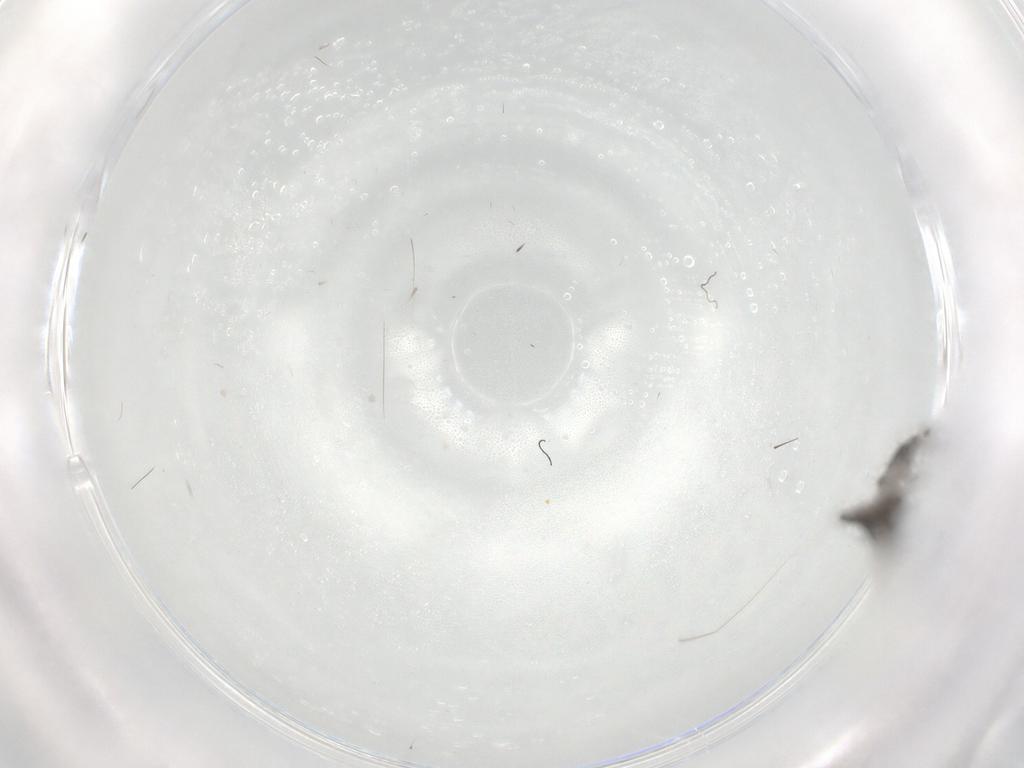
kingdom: Animalia
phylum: Arthropoda
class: Insecta
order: Diptera
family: Phoridae
